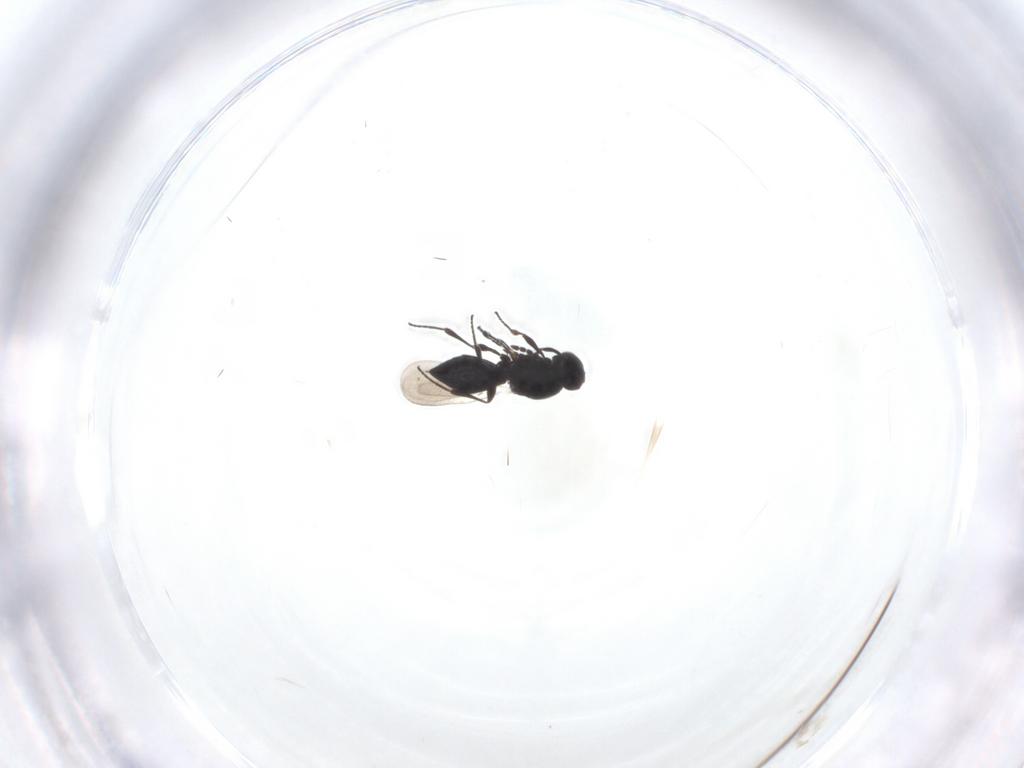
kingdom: Animalia
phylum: Arthropoda
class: Insecta
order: Hymenoptera
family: Platygastridae
